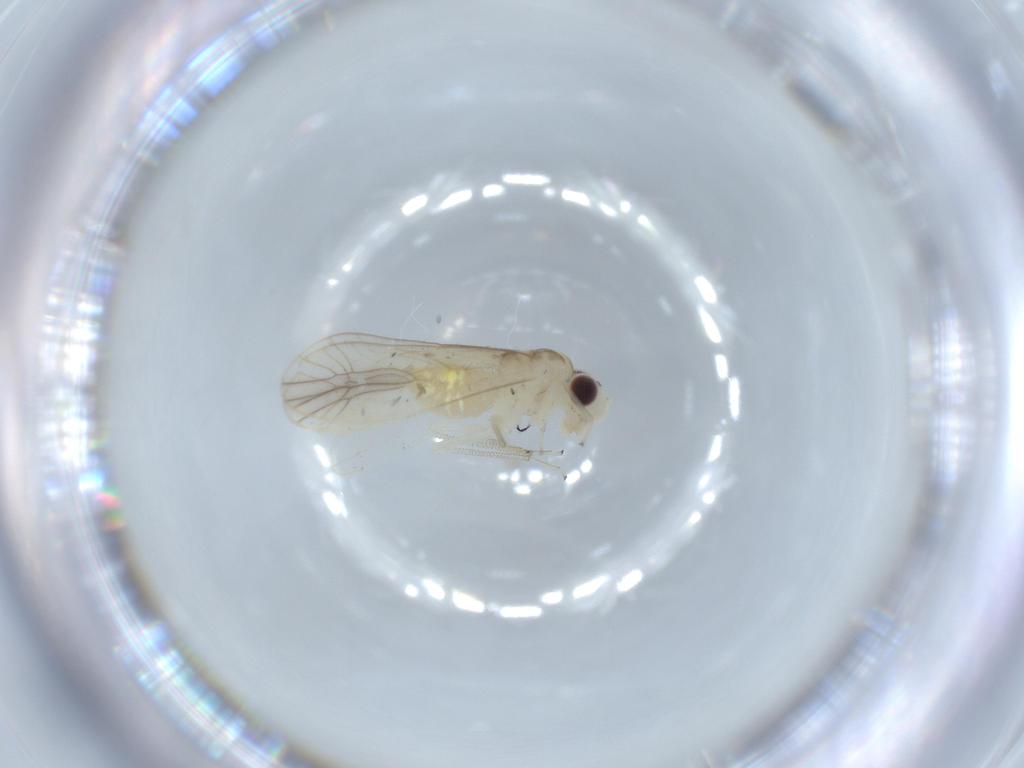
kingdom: Animalia
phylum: Arthropoda
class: Insecta
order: Psocodea
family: Caeciliusidae
